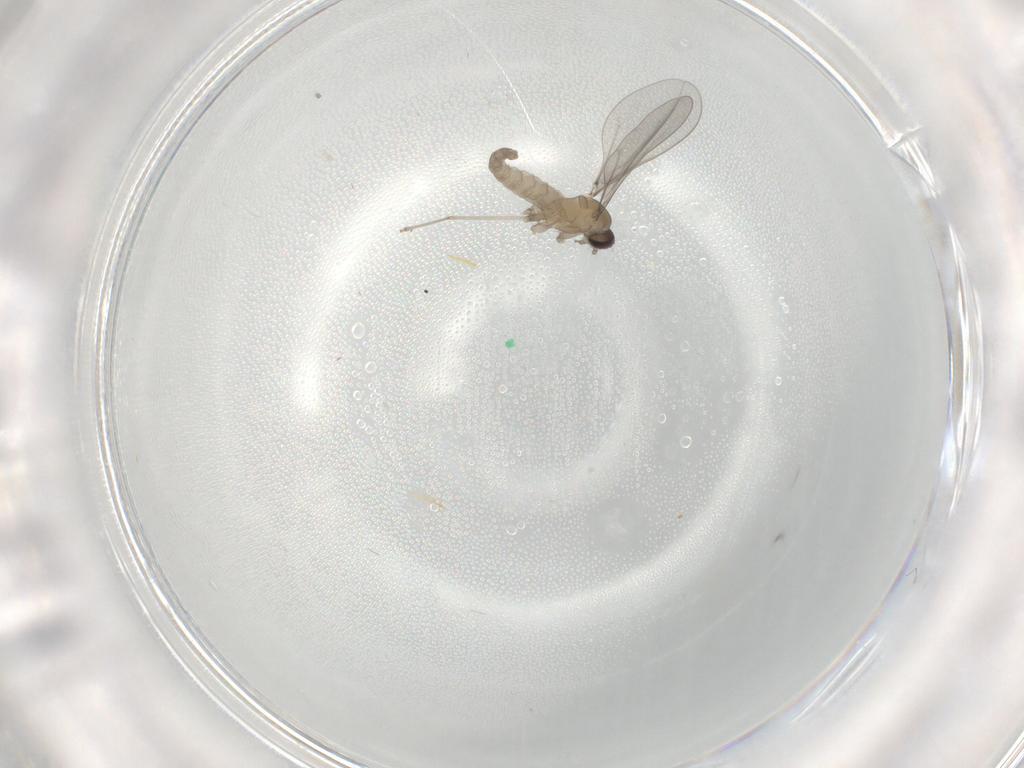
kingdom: Animalia
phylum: Arthropoda
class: Insecta
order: Diptera
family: Cecidomyiidae
